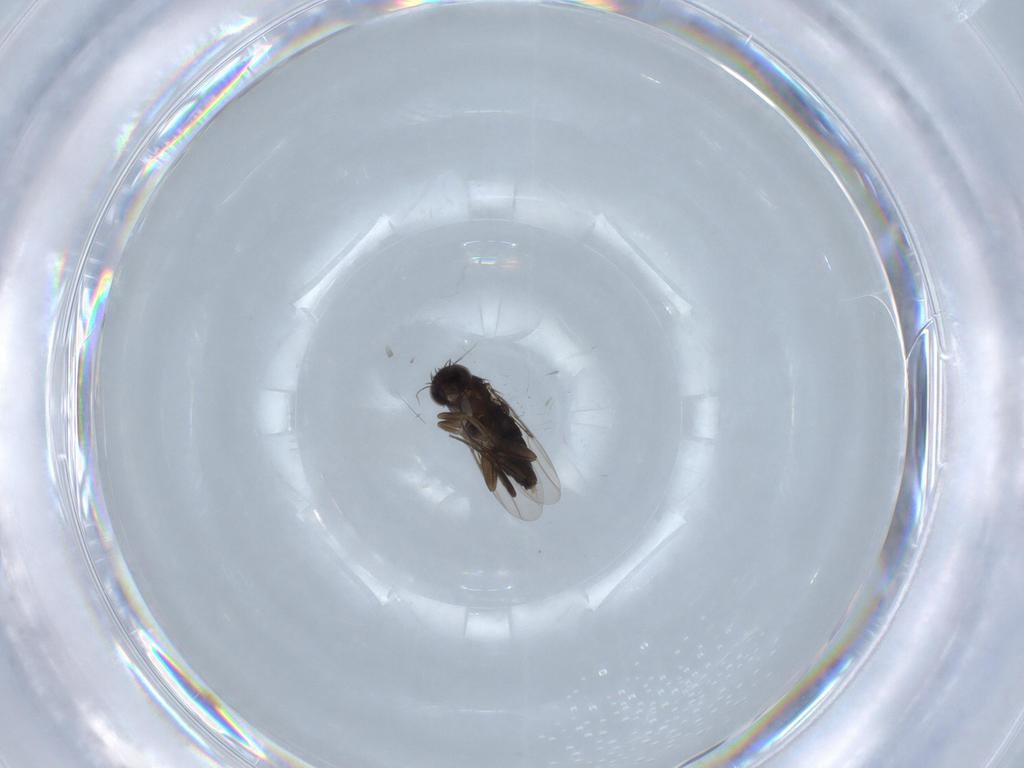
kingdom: Animalia
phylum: Arthropoda
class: Insecta
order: Diptera
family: Phoridae
